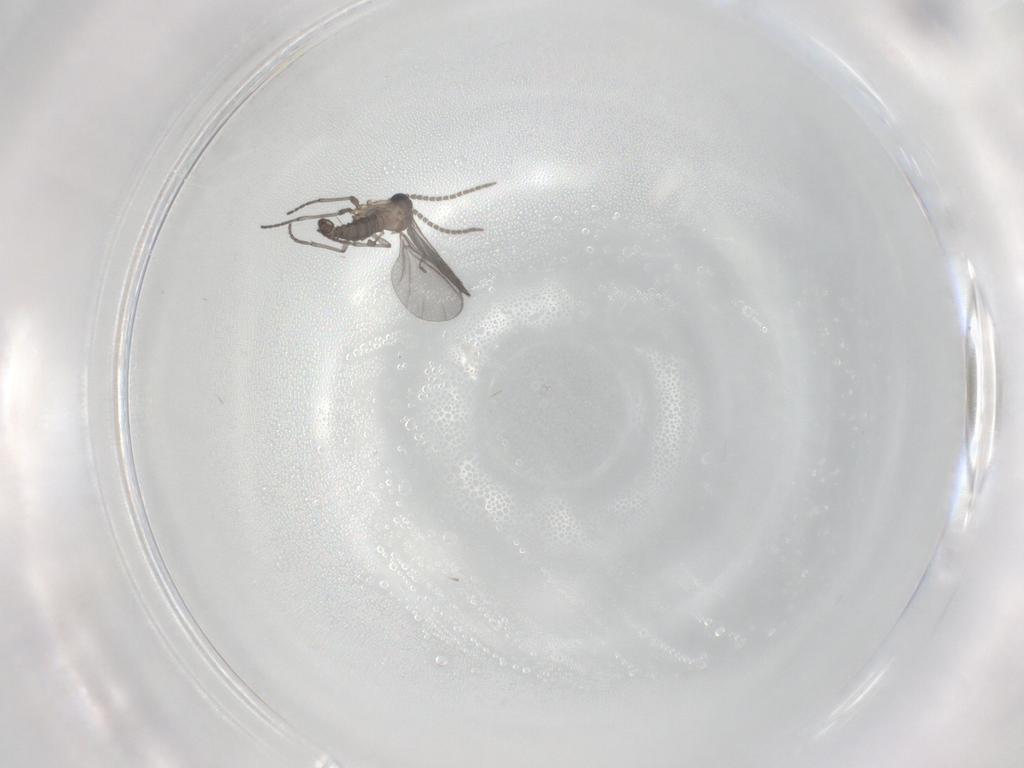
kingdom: Animalia
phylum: Arthropoda
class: Insecta
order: Diptera
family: Sciaridae
